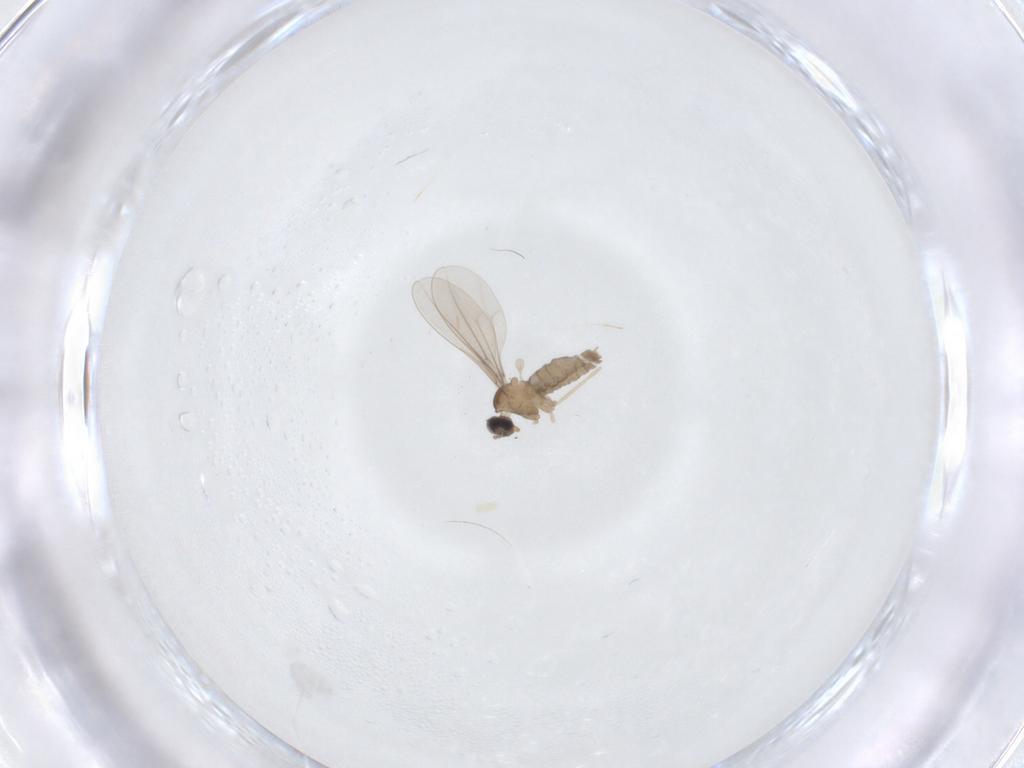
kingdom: Animalia
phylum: Arthropoda
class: Insecta
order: Diptera
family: Cecidomyiidae
